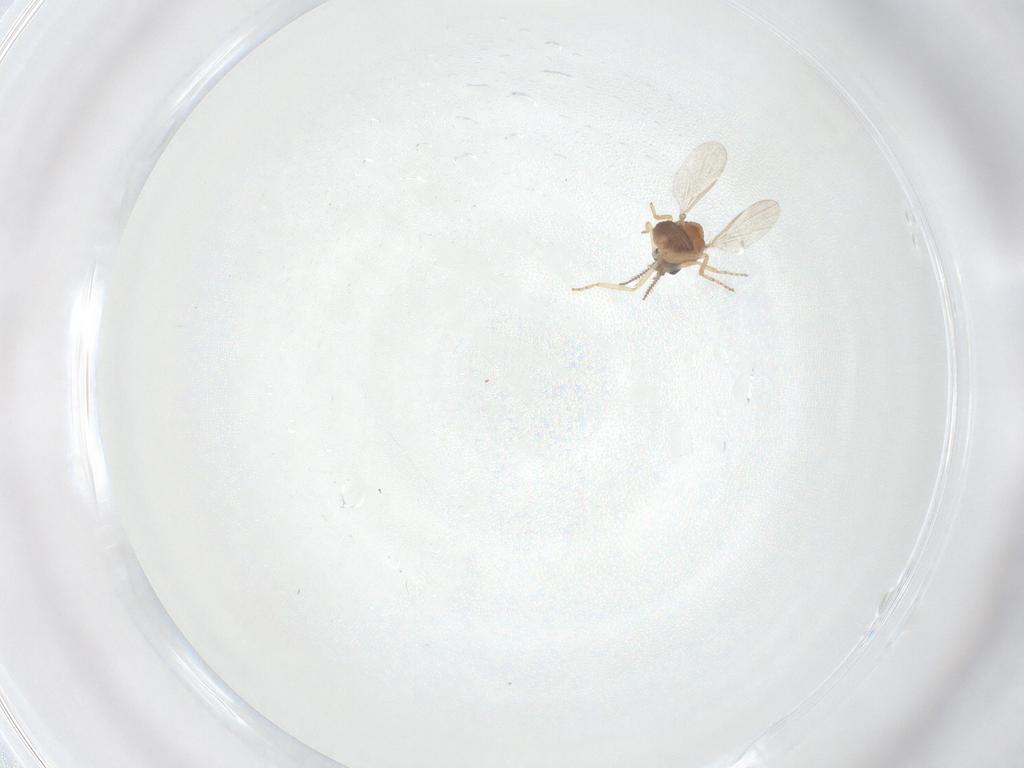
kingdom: Animalia
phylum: Arthropoda
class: Insecta
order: Diptera
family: Ceratopogonidae
